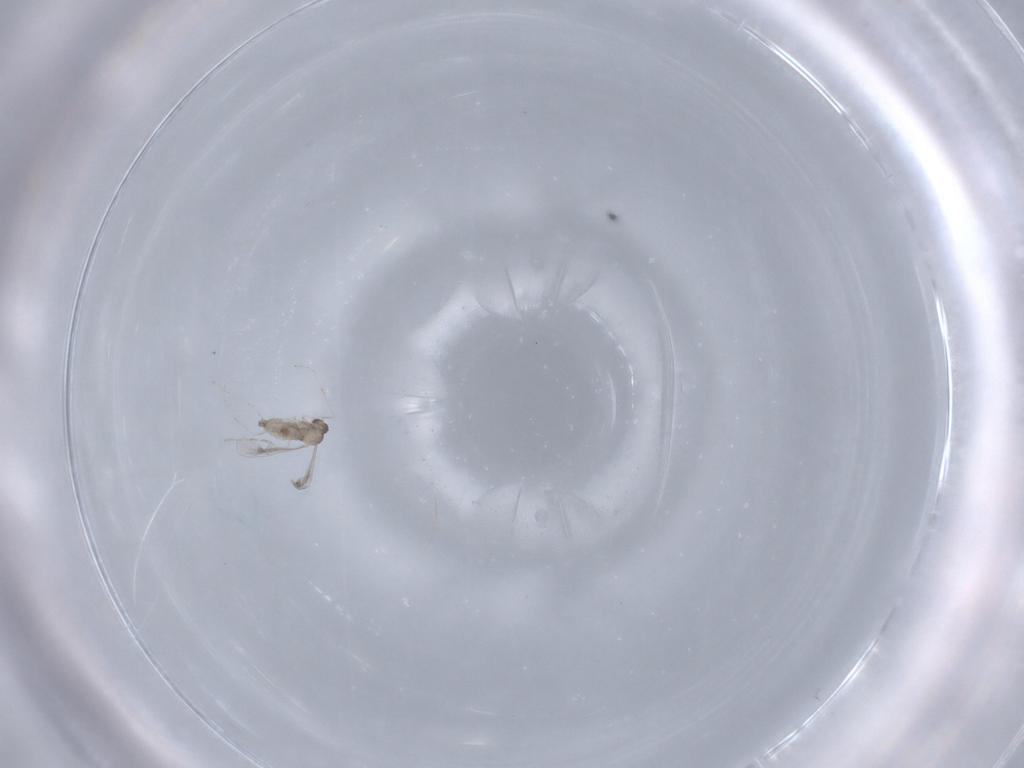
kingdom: Animalia
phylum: Arthropoda
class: Insecta
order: Diptera
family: Cecidomyiidae
